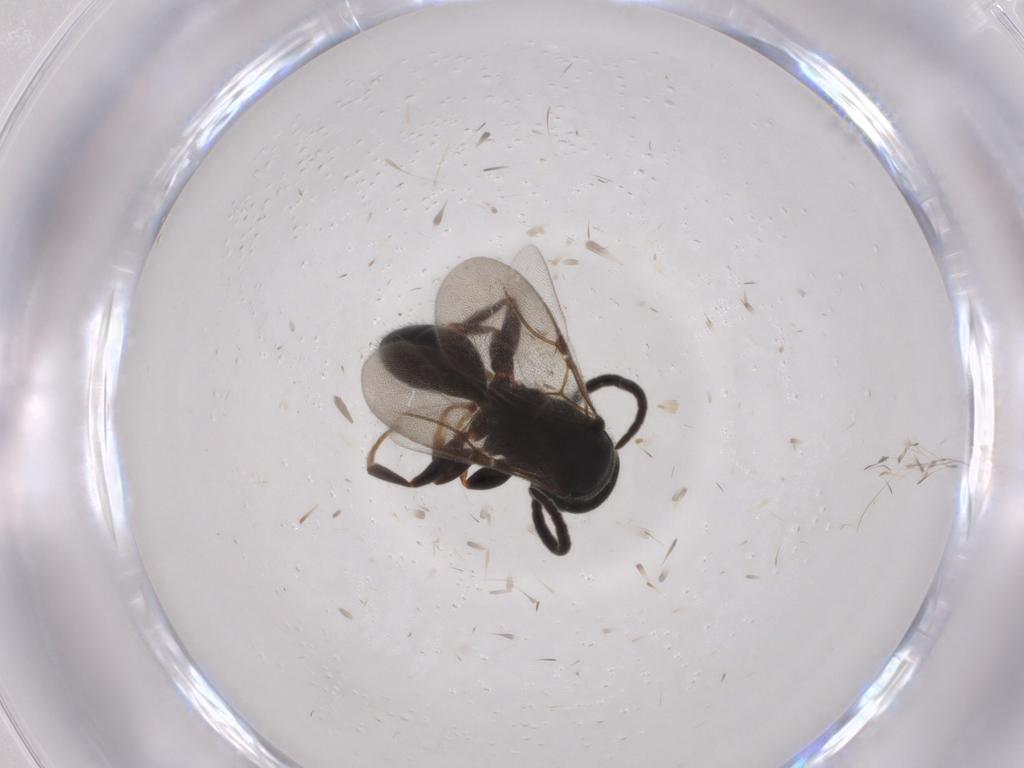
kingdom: Animalia
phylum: Arthropoda
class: Insecta
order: Hymenoptera
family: Bethylidae
